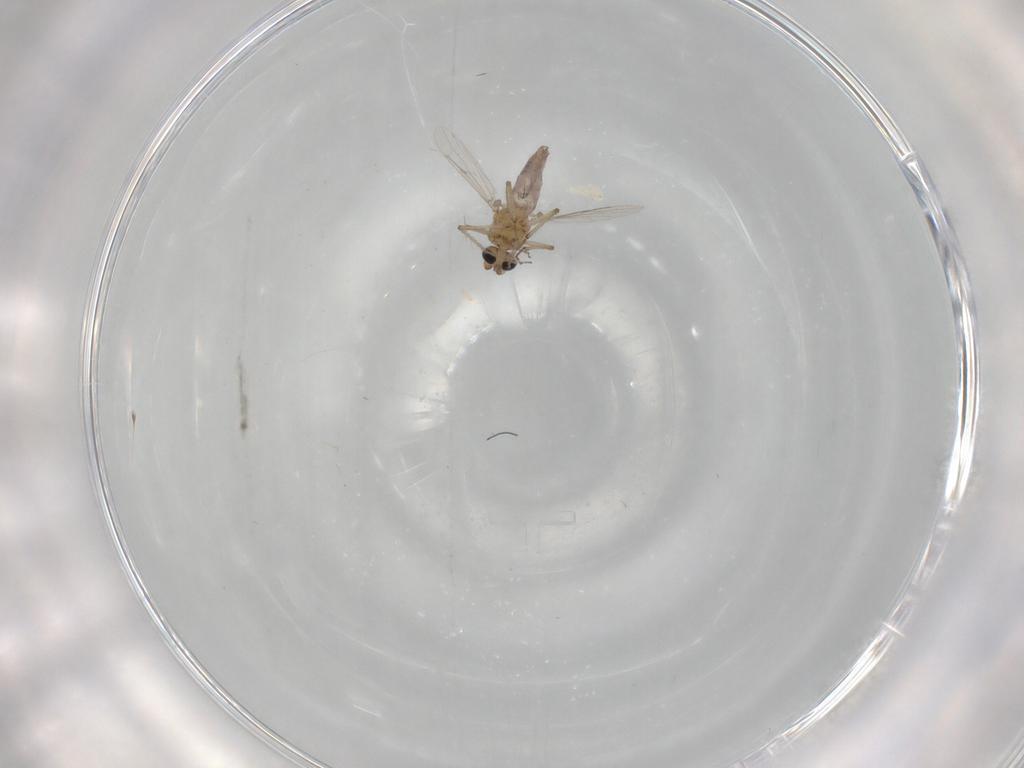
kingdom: Animalia
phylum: Arthropoda
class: Insecta
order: Diptera
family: Ceratopogonidae
